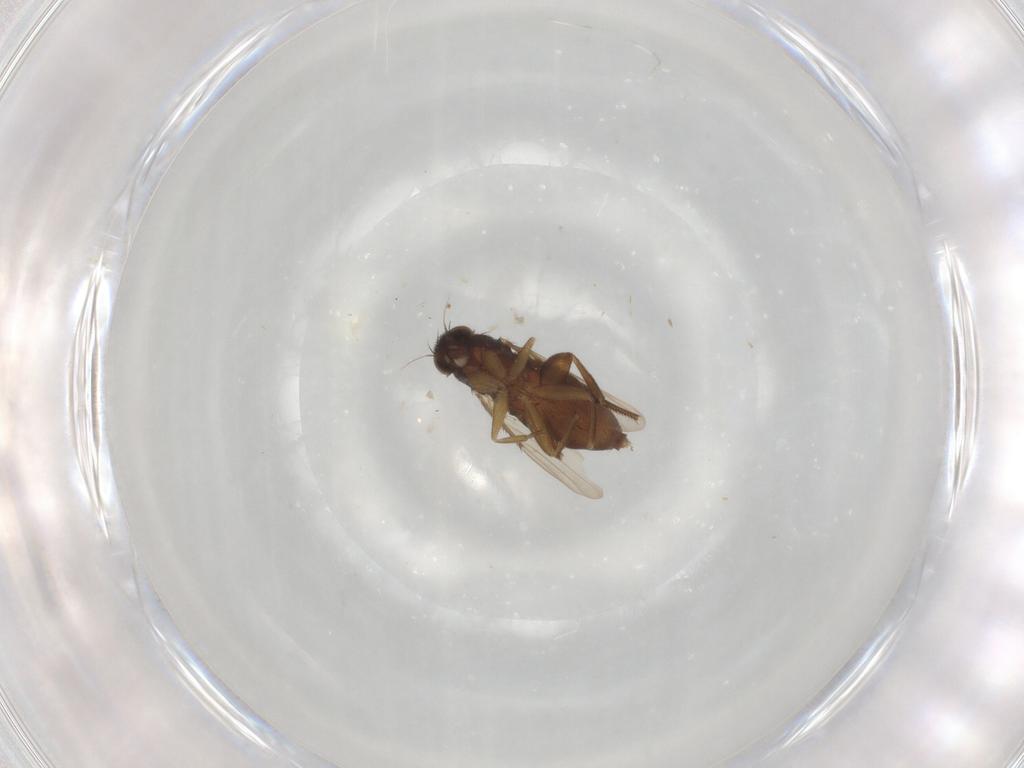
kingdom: Animalia
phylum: Arthropoda
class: Insecta
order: Diptera
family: Phoridae
